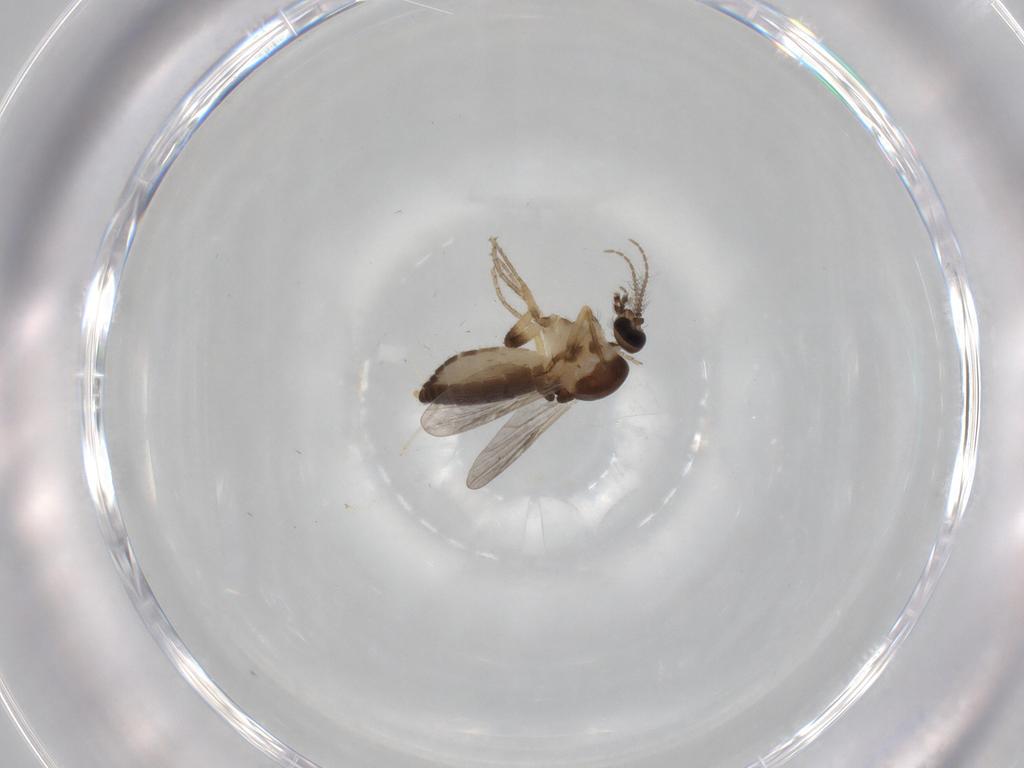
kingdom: Animalia
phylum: Arthropoda
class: Insecta
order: Diptera
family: Ceratopogonidae
